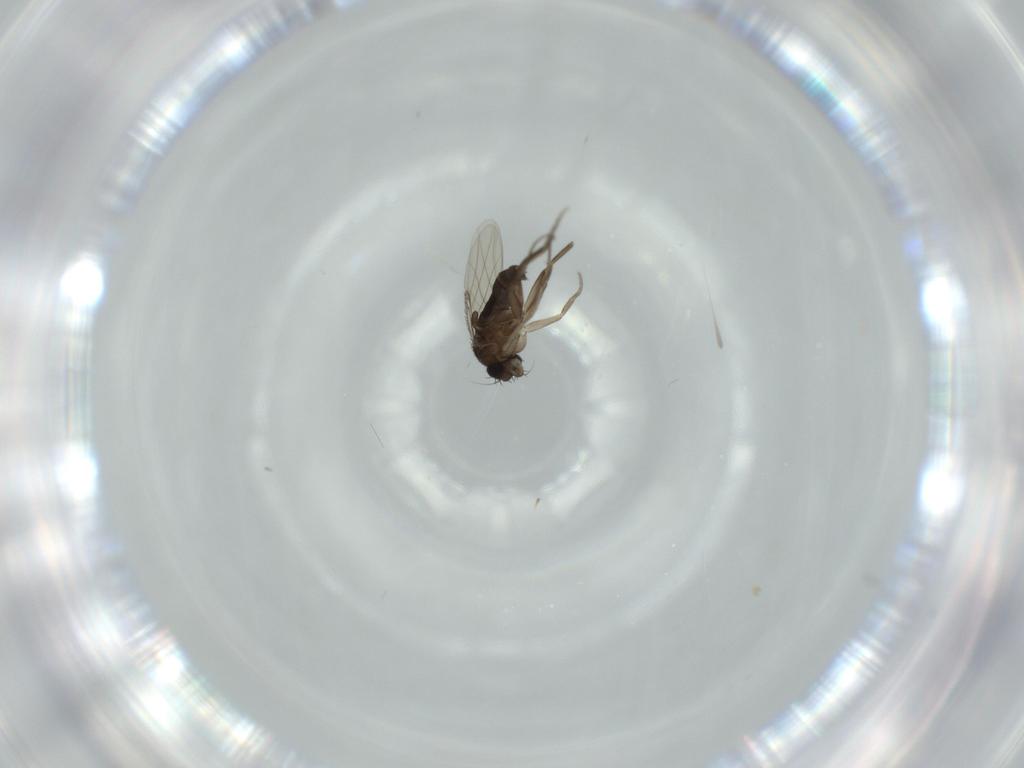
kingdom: Animalia
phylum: Arthropoda
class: Insecta
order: Diptera
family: Phoridae
